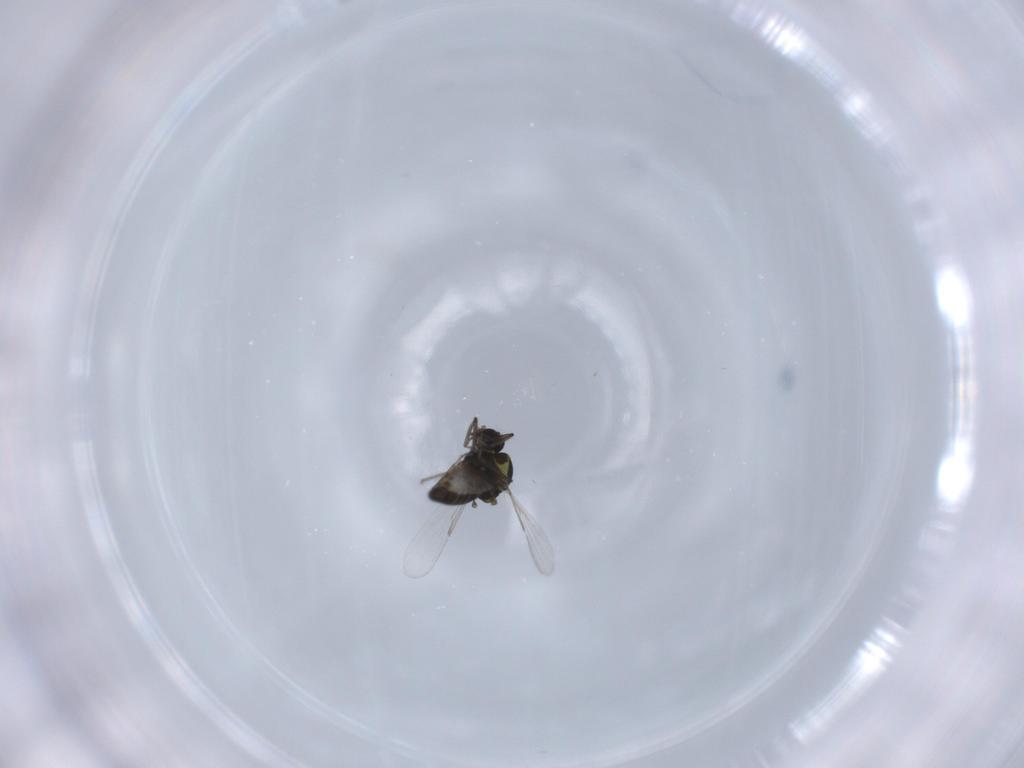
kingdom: Animalia
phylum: Arthropoda
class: Insecta
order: Diptera
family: Ceratopogonidae
